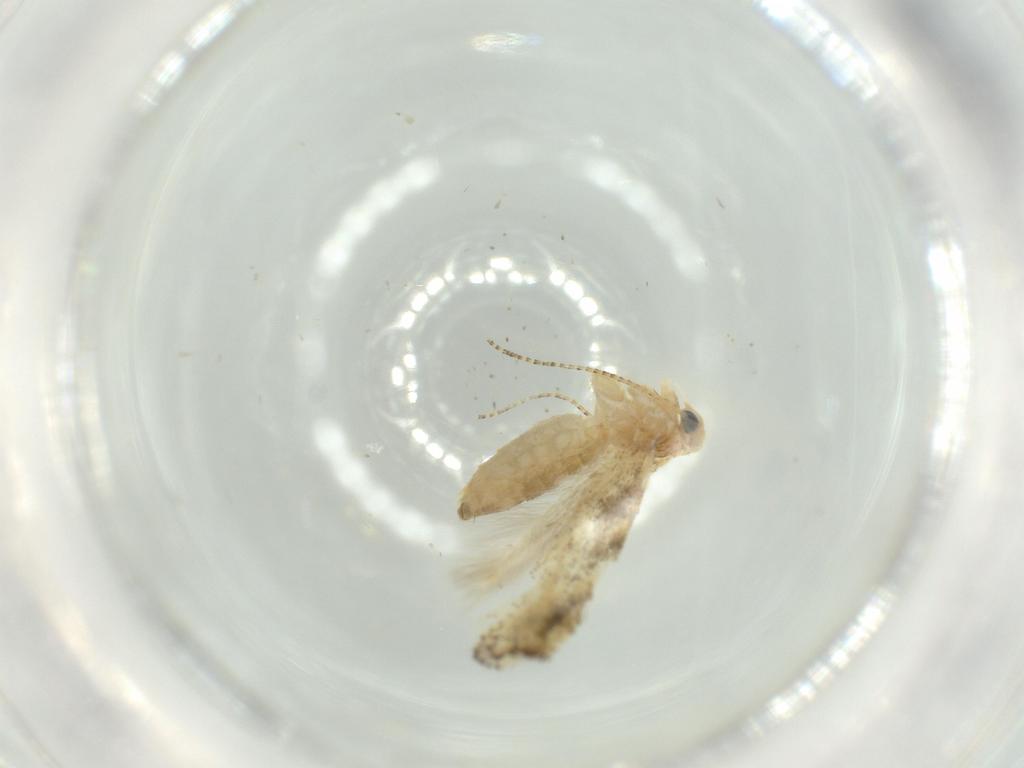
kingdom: Animalia
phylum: Arthropoda
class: Insecta
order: Lepidoptera
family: Bucculatricidae
